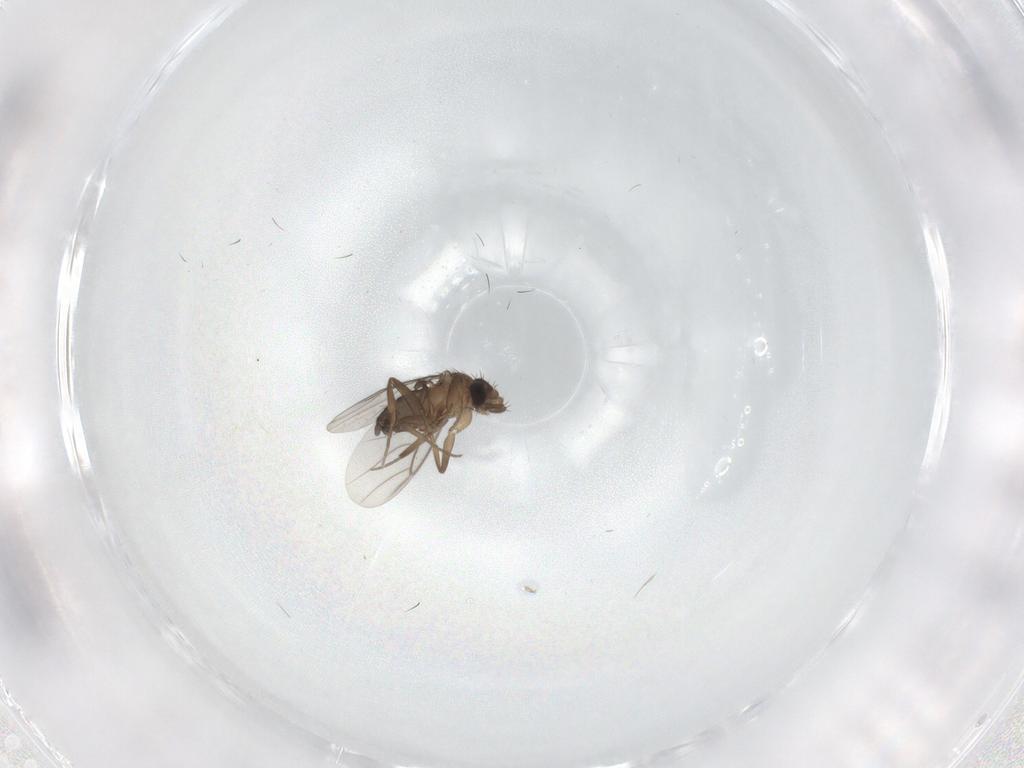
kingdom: Animalia
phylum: Arthropoda
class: Insecta
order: Diptera
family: Phoridae
